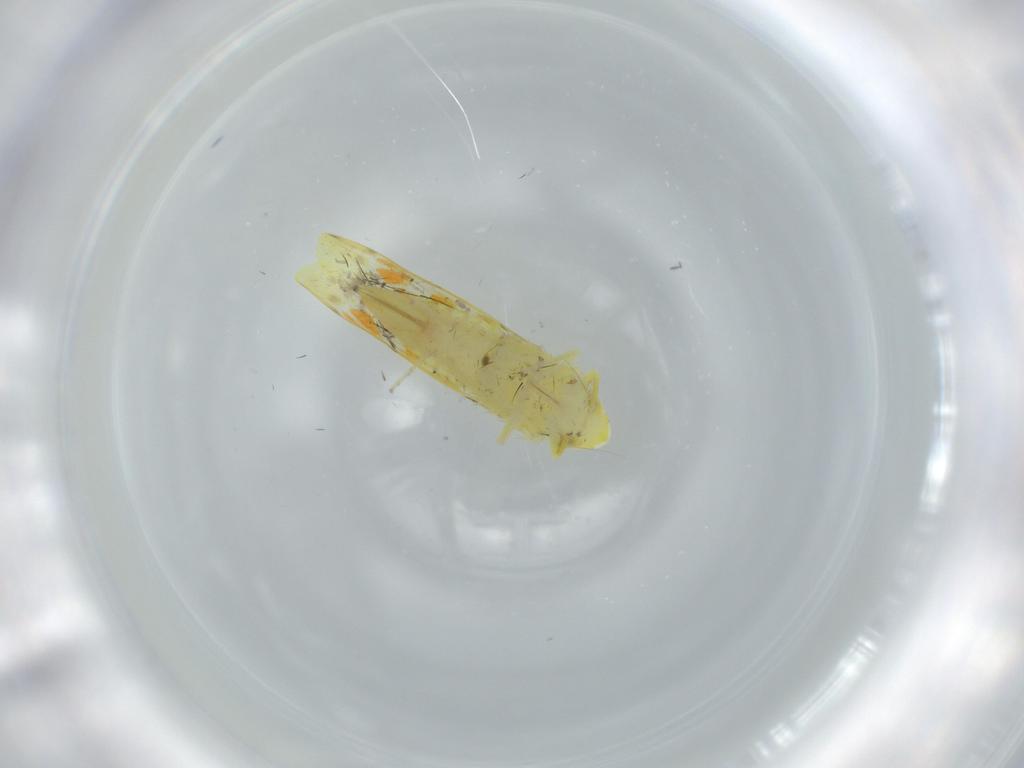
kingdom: Animalia
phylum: Arthropoda
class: Insecta
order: Hemiptera
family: Cicadellidae
